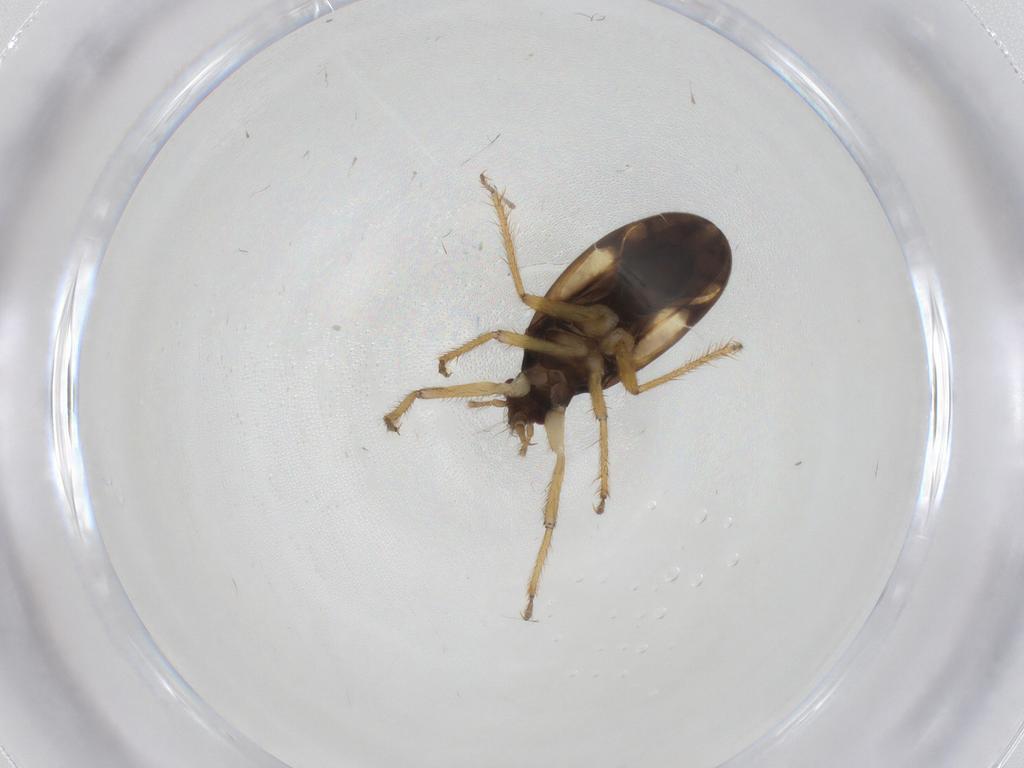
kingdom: Animalia
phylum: Arthropoda
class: Insecta
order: Hemiptera
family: Ceratocombidae
